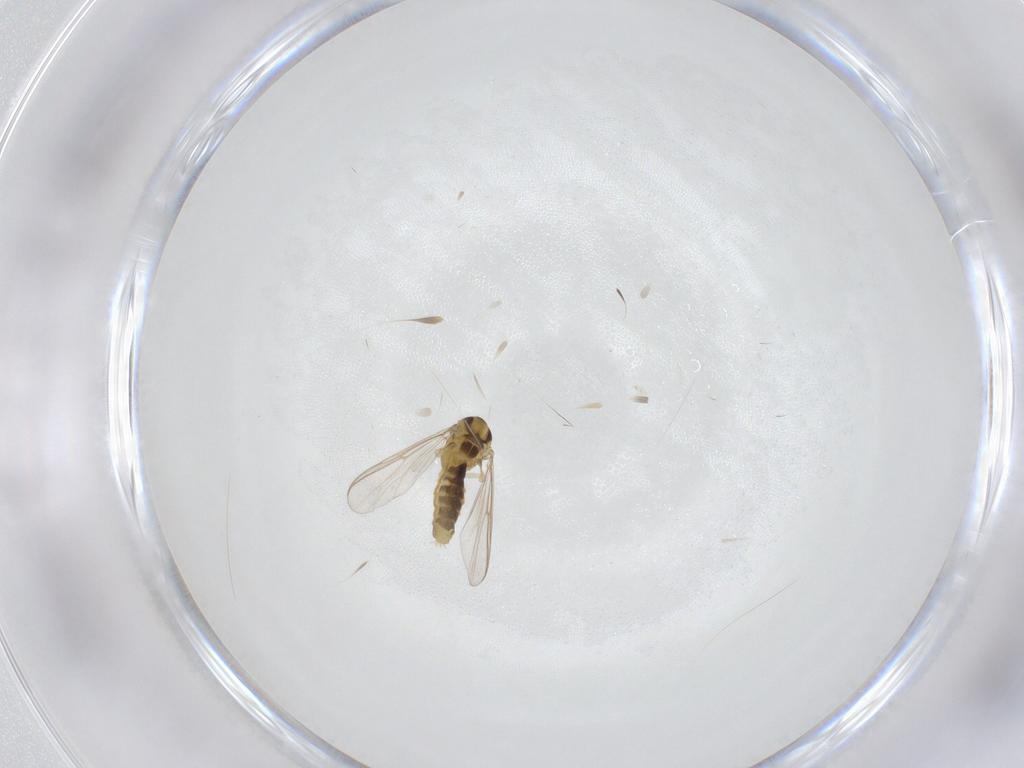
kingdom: Animalia
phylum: Arthropoda
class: Insecta
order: Diptera
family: Chironomidae
